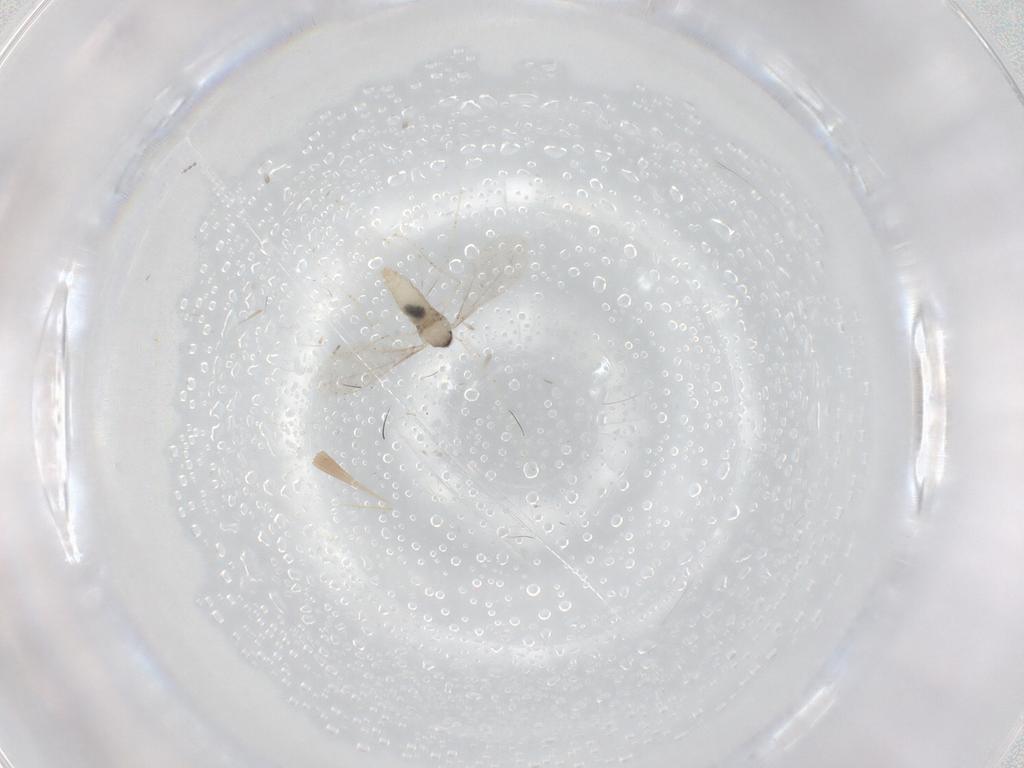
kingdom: Animalia
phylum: Arthropoda
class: Insecta
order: Diptera
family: Cecidomyiidae
